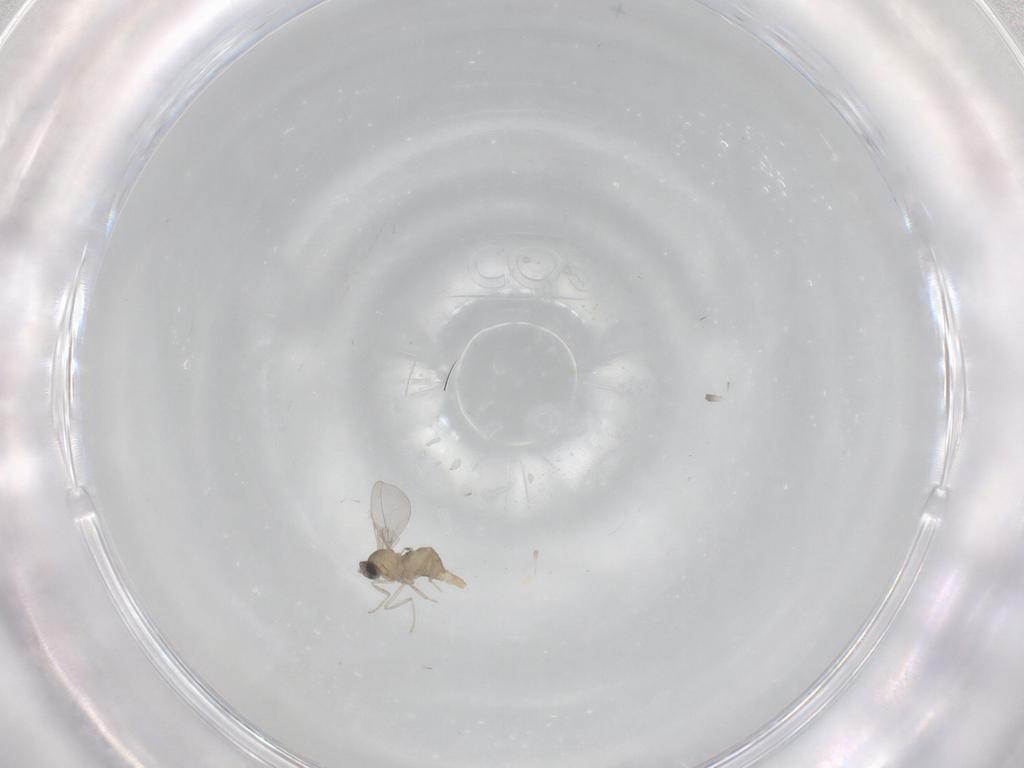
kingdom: Animalia
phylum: Arthropoda
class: Insecta
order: Diptera
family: Cecidomyiidae
